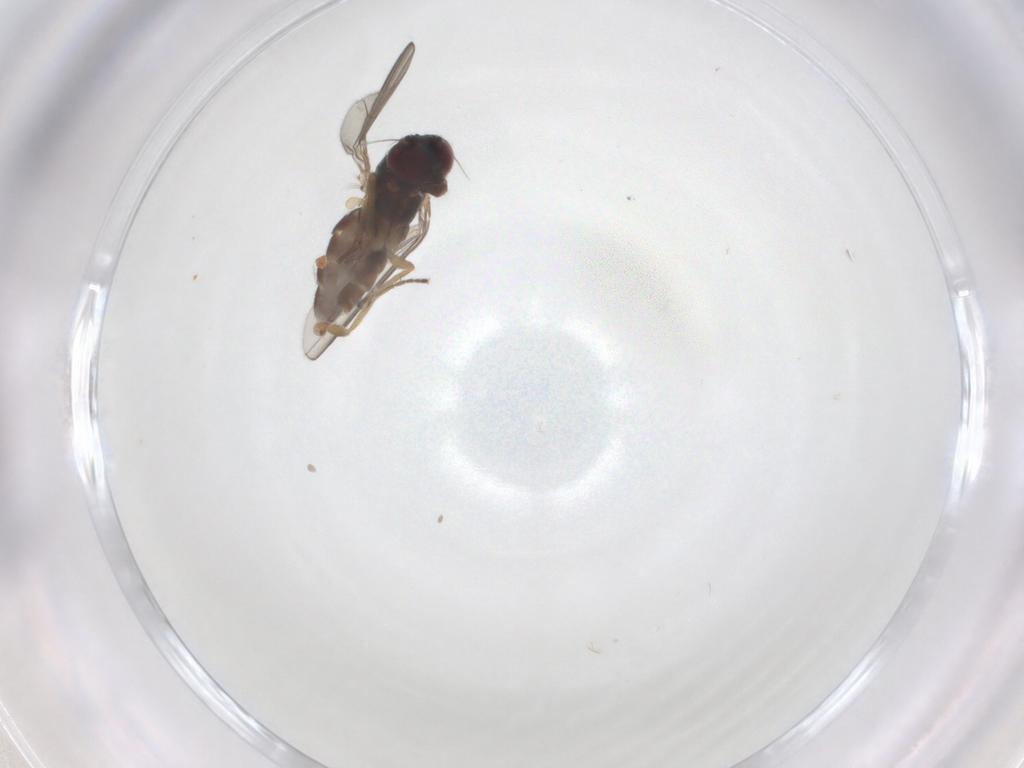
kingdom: Animalia
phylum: Arthropoda
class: Insecta
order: Diptera
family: Dolichopodidae
